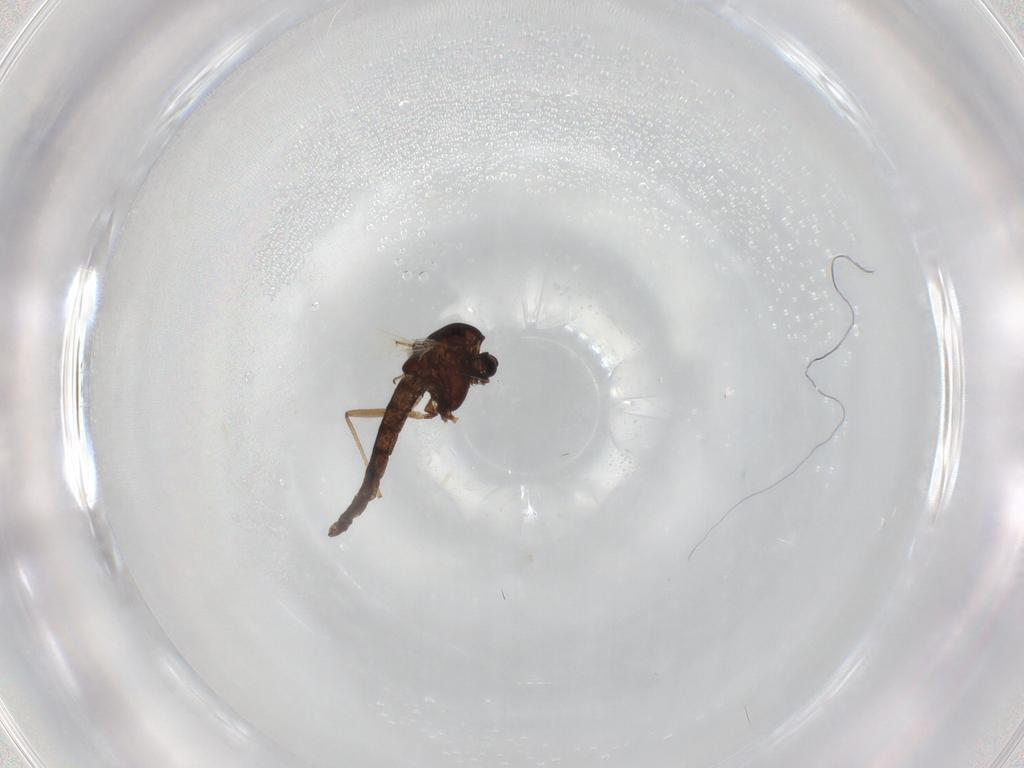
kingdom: Animalia
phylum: Arthropoda
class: Insecta
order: Diptera
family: Chironomidae
